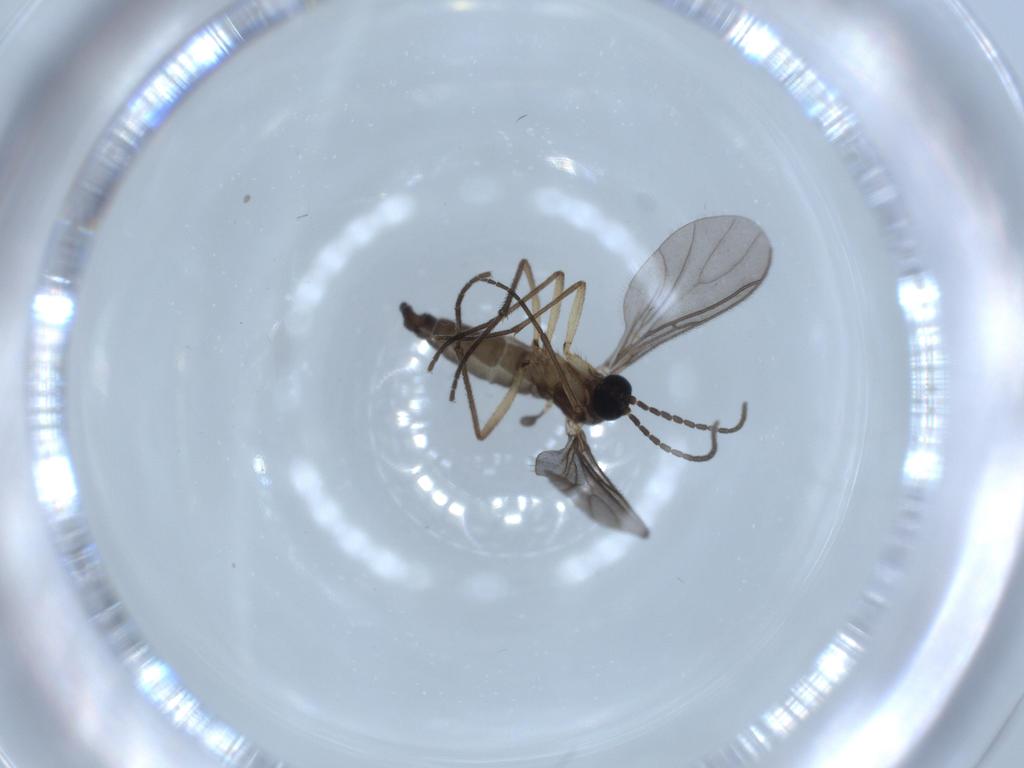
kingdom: Animalia
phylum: Arthropoda
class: Insecta
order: Diptera
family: Sciaridae
